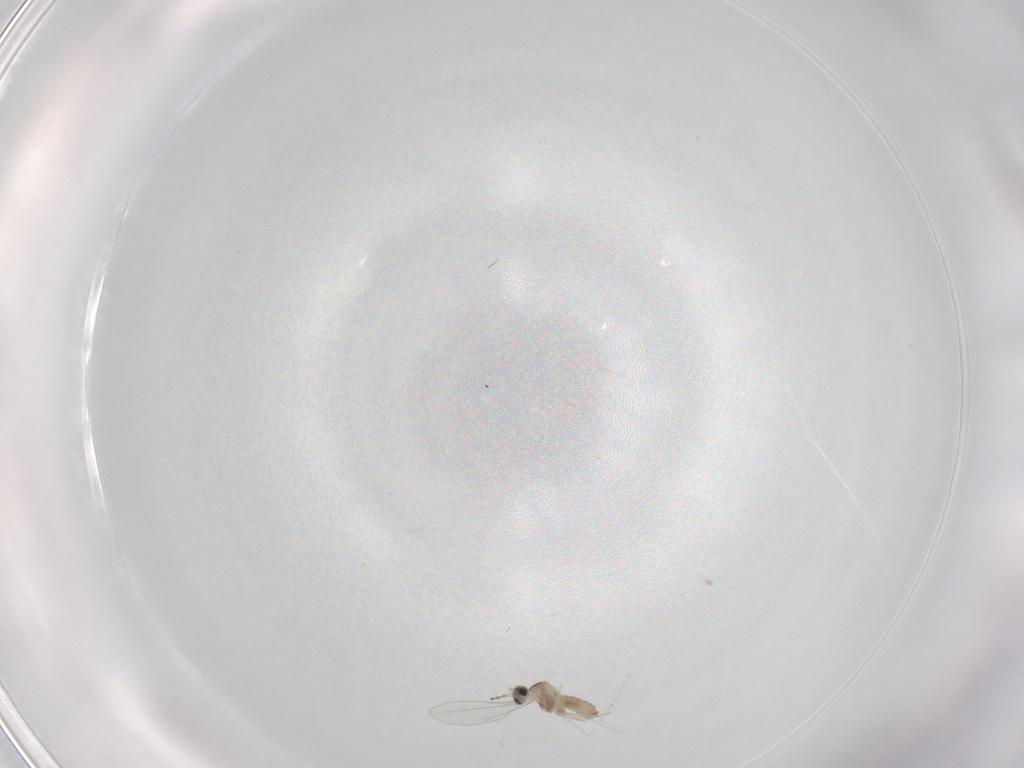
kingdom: Animalia
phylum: Arthropoda
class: Insecta
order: Diptera
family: Cecidomyiidae
